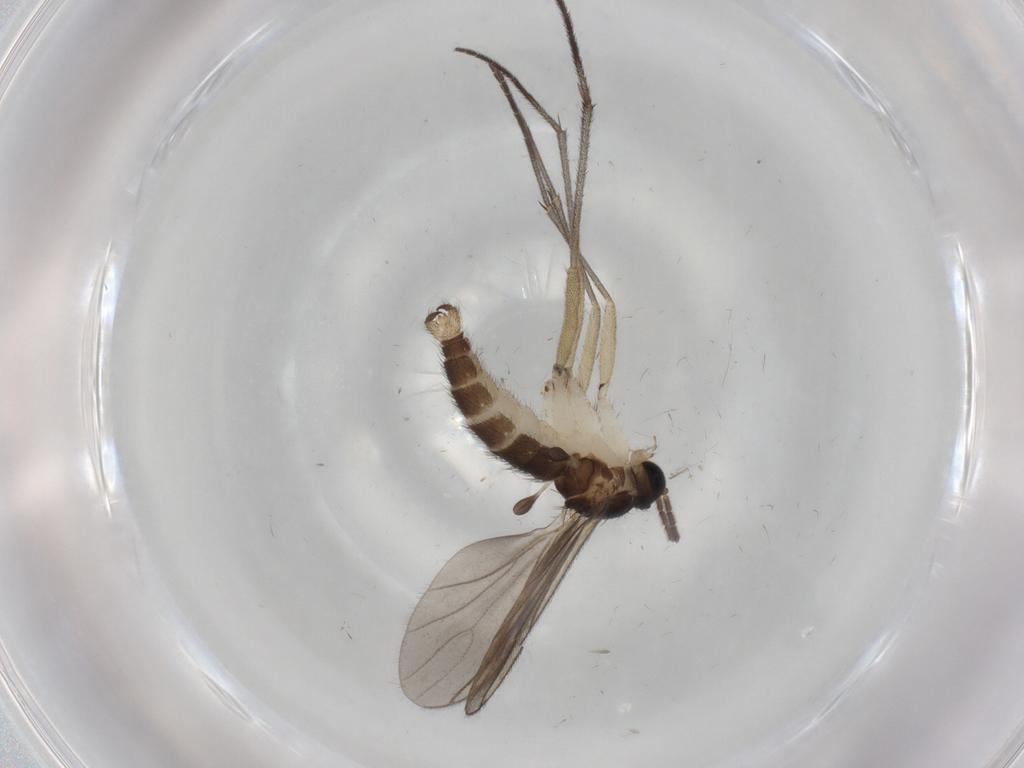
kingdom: Animalia
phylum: Arthropoda
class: Insecta
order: Diptera
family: Sciaridae
